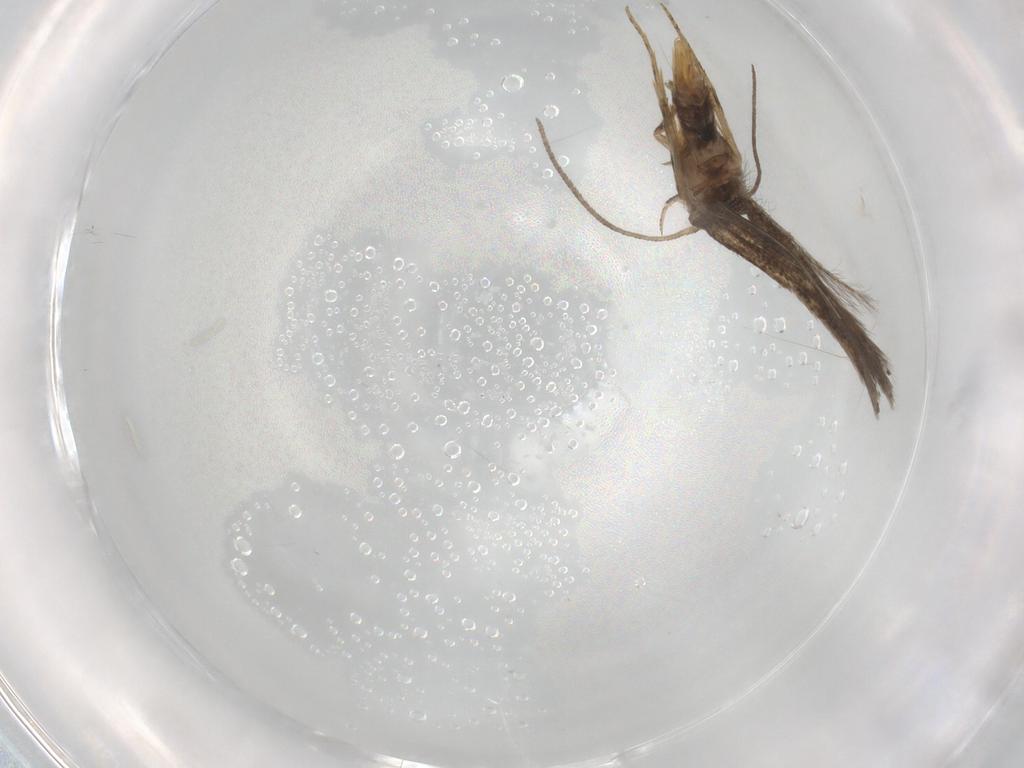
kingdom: Animalia
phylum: Arthropoda
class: Insecta
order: Lepidoptera
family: Elachistidae
